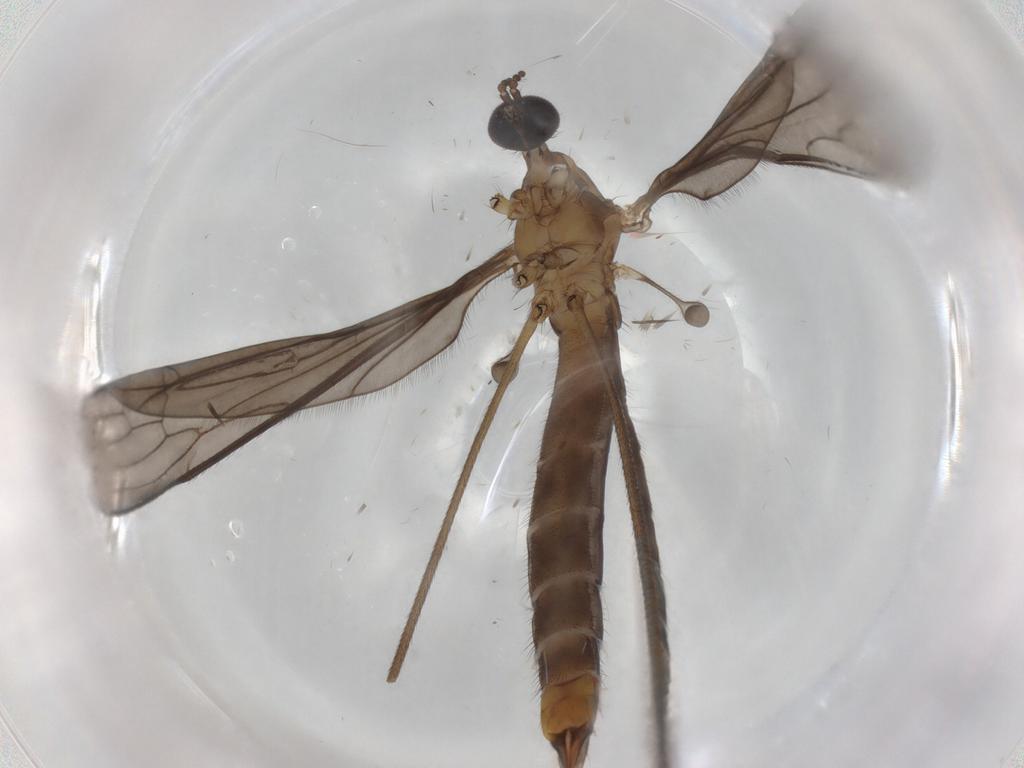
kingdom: Animalia
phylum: Arthropoda
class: Insecta
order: Diptera
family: Drosophilidae
